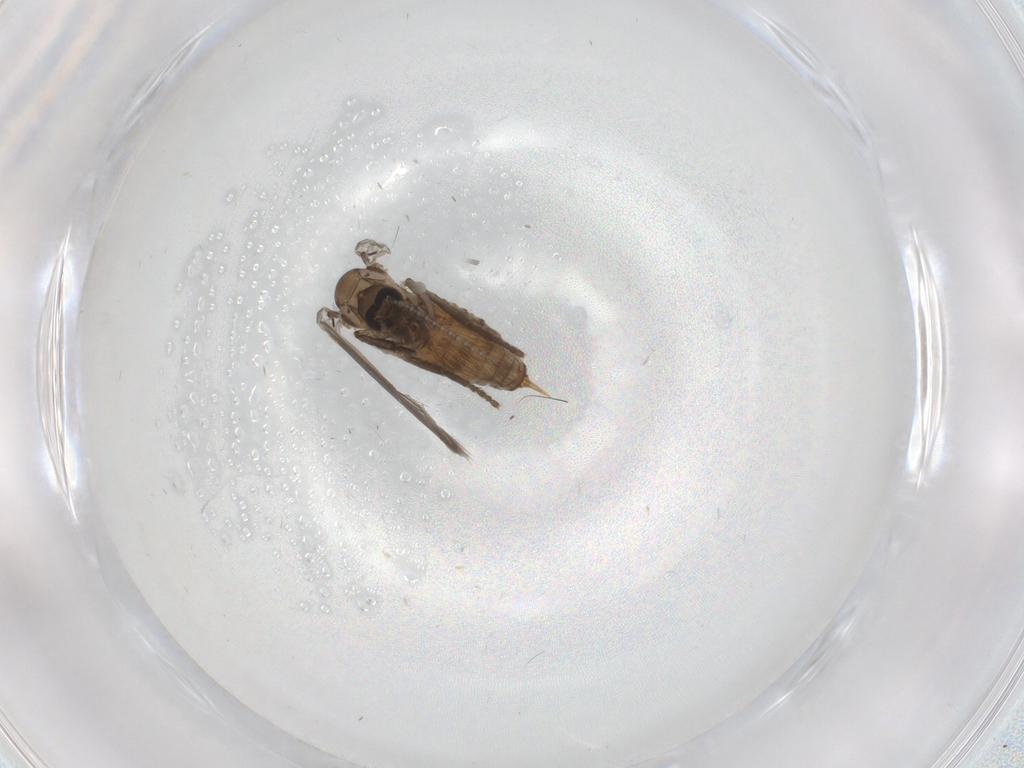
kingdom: Animalia
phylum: Arthropoda
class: Insecta
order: Diptera
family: Psychodidae
